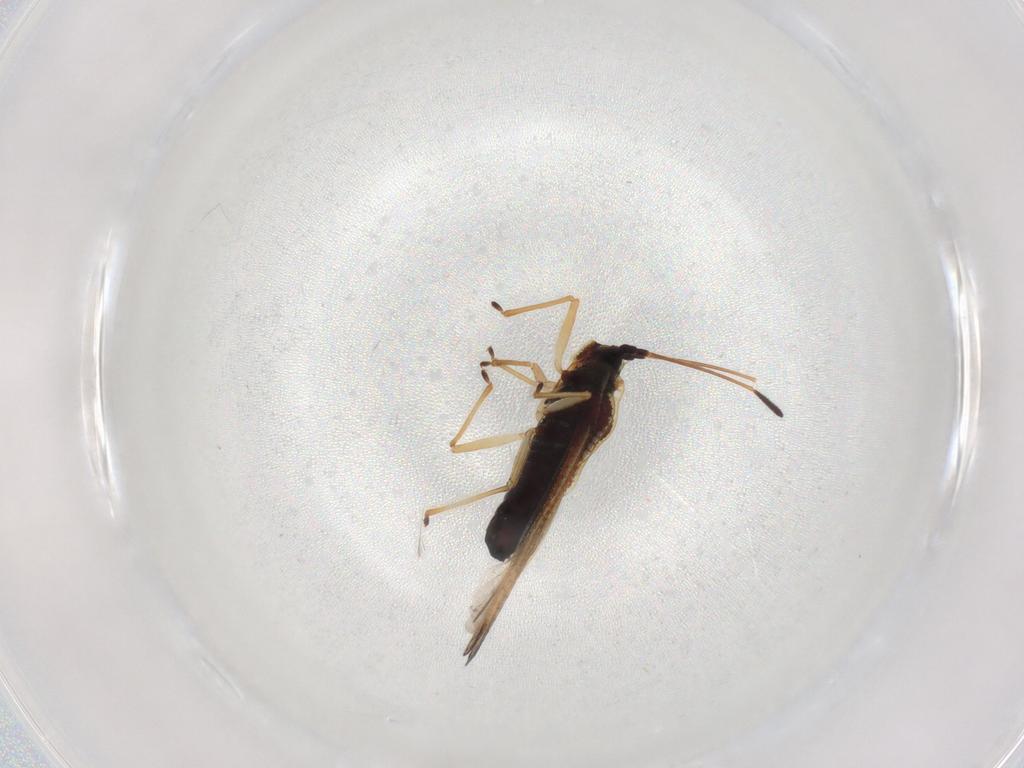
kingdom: Animalia
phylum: Arthropoda
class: Insecta
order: Hemiptera
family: Tingidae
